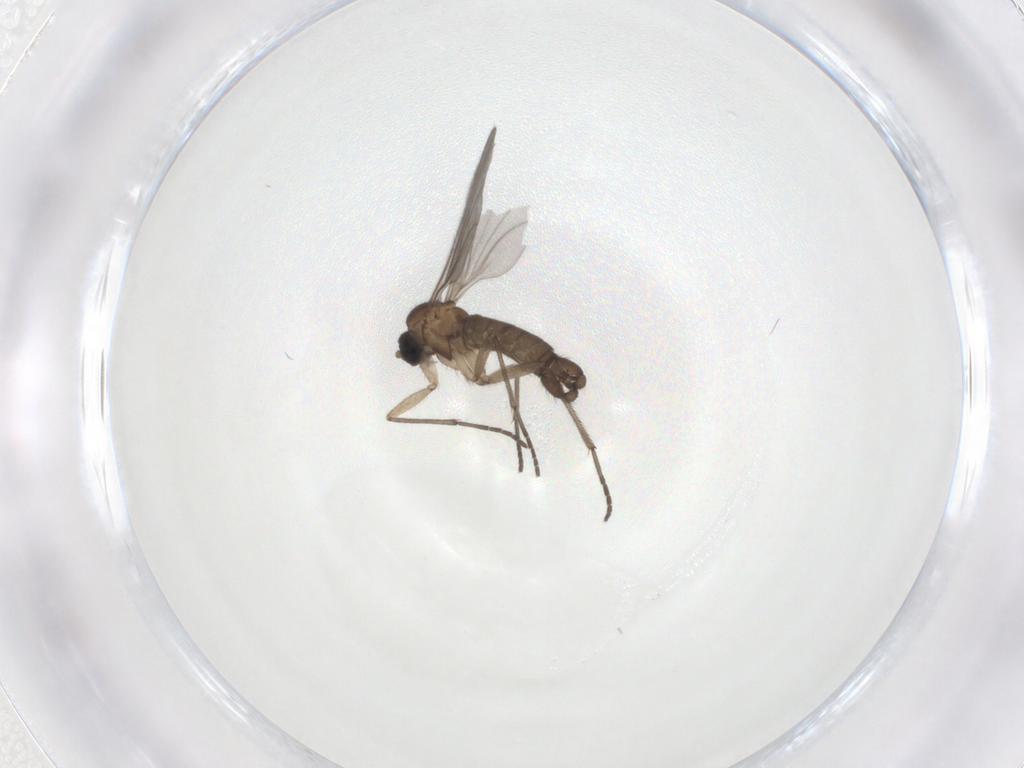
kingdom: Animalia
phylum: Arthropoda
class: Insecta
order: Diptera
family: Sciaridae
